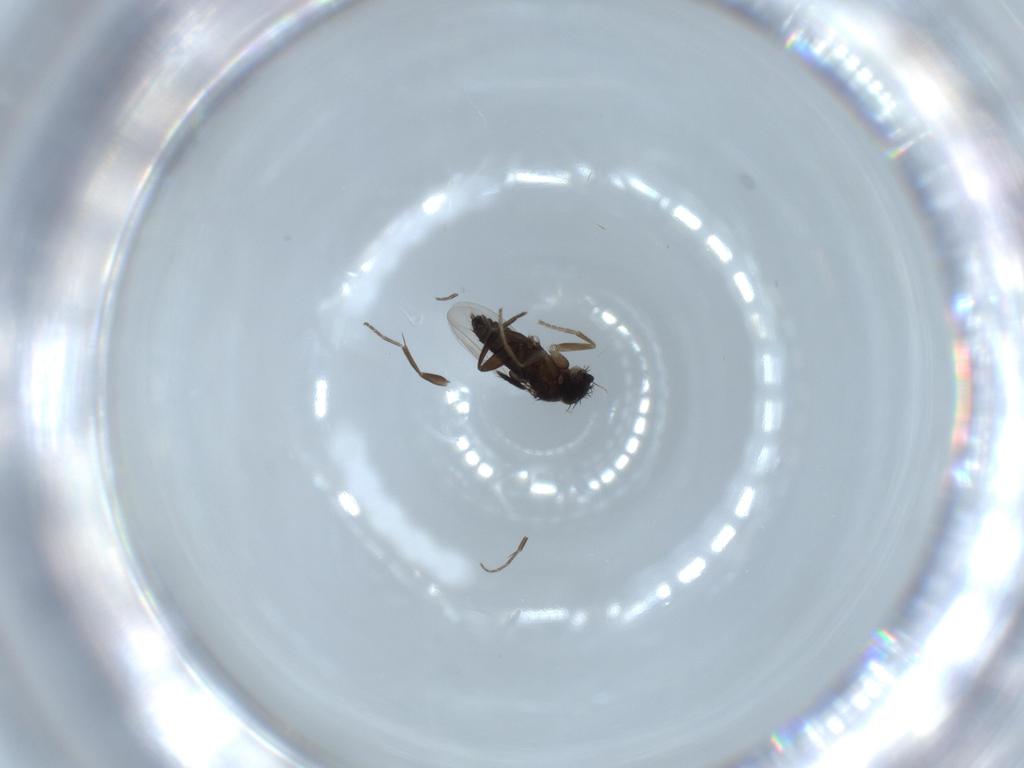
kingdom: Animalia
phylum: Arthropoda
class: Insecta
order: Diptera
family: Phoridae
